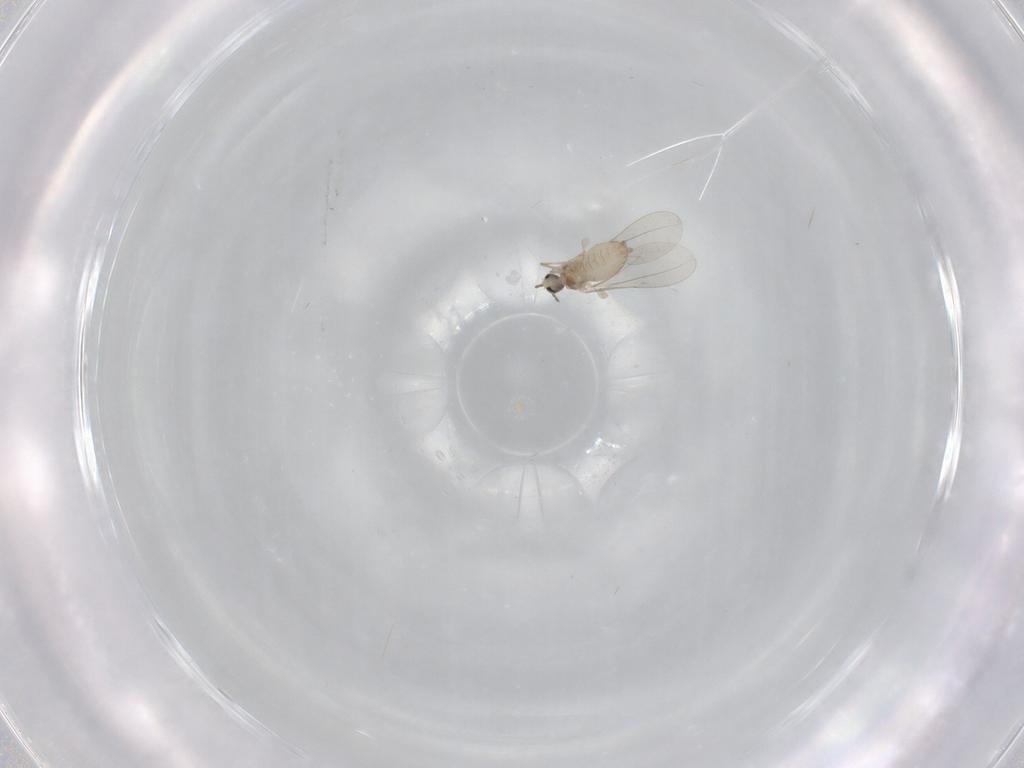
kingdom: Animalia
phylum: Arthropoda
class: Insecta
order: Diptera
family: Cecidomyiidae
